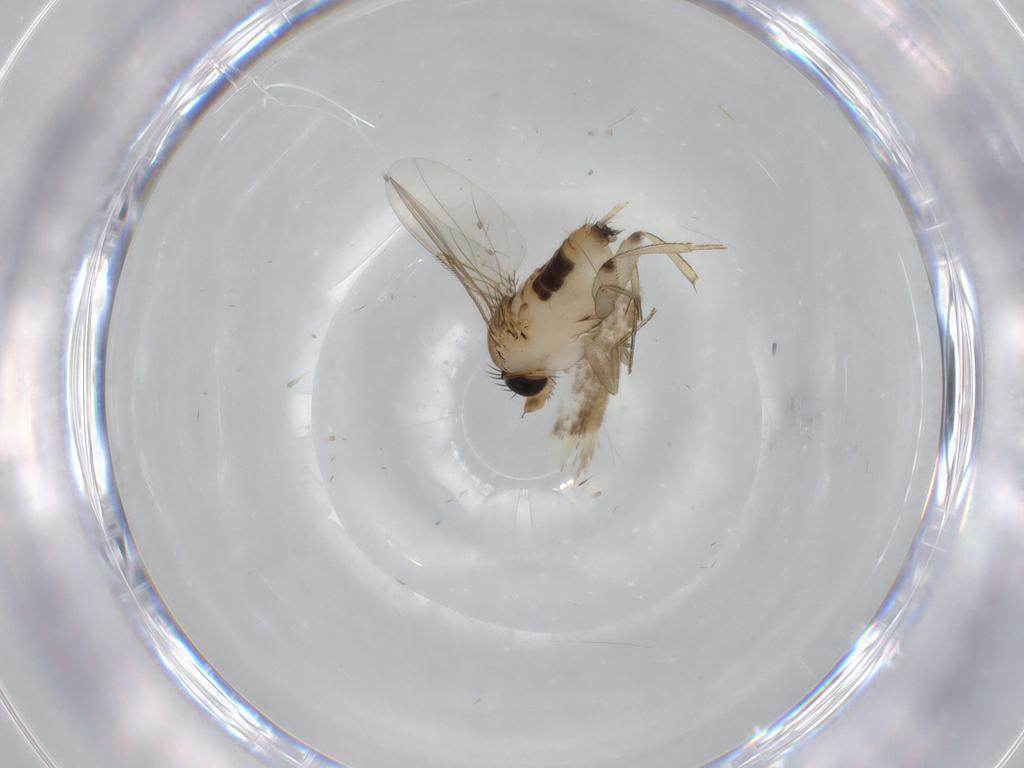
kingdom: Animalia
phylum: Arthropoda
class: Insecta
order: Diptera
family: Phoridae
